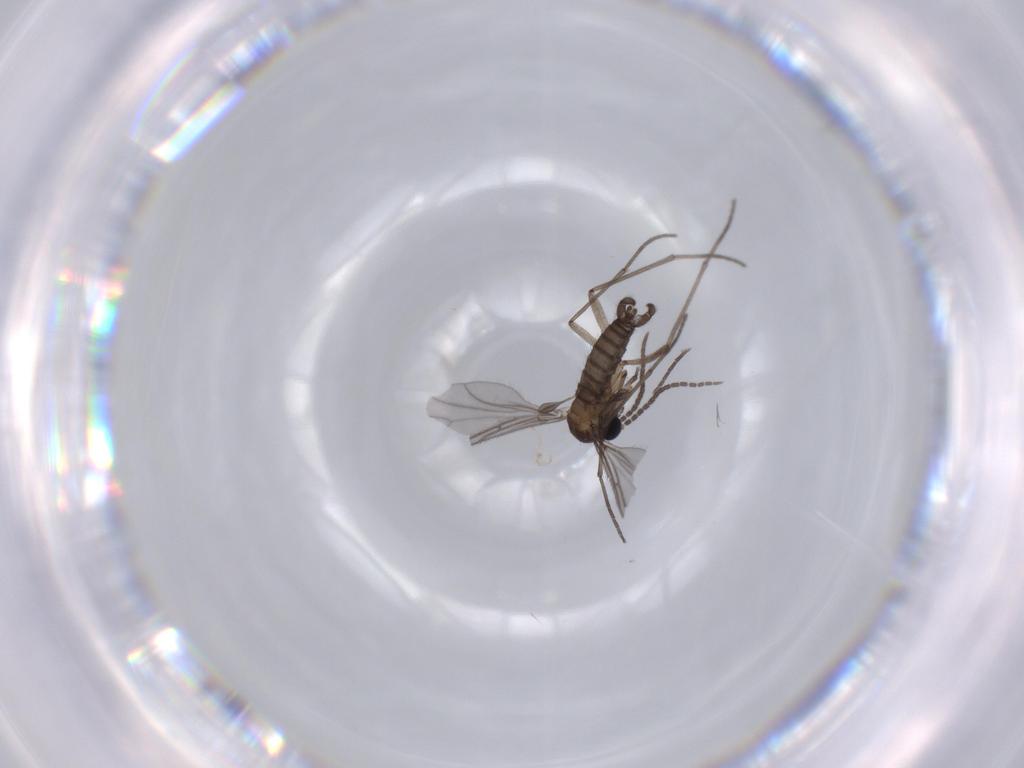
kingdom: Animalia
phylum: Arthropoda
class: Insecta
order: Diptera
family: Sciaridae
